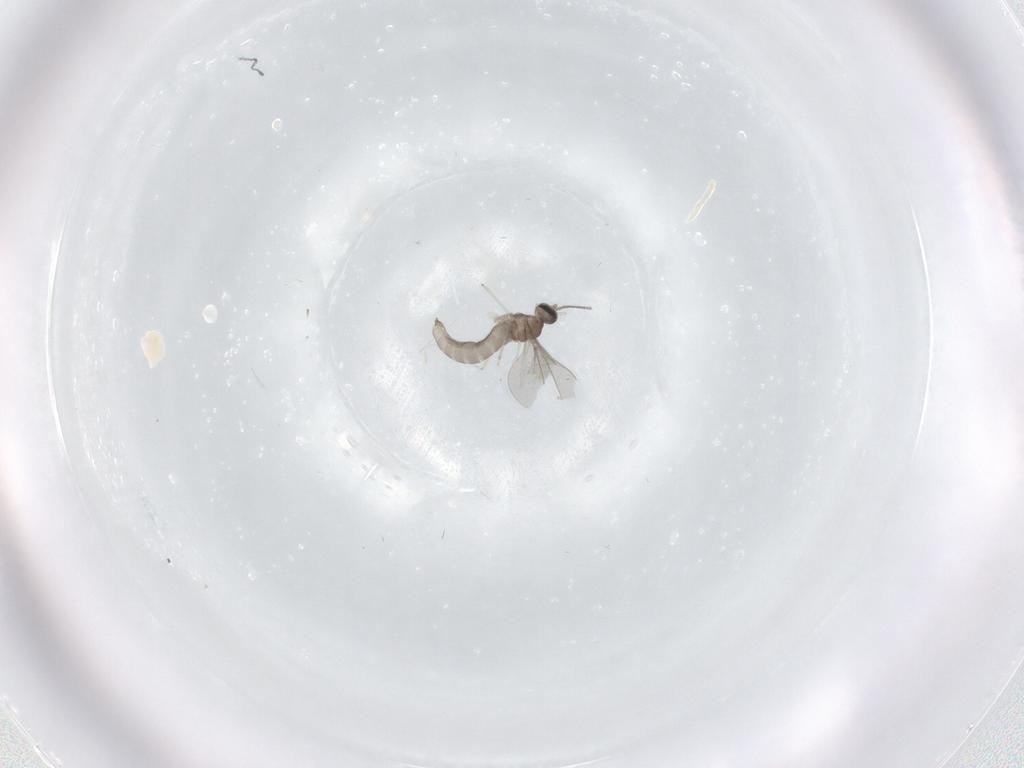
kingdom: Animalia
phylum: Arthropoda
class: Insecta
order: Diptera
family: Cecidomyiidae
